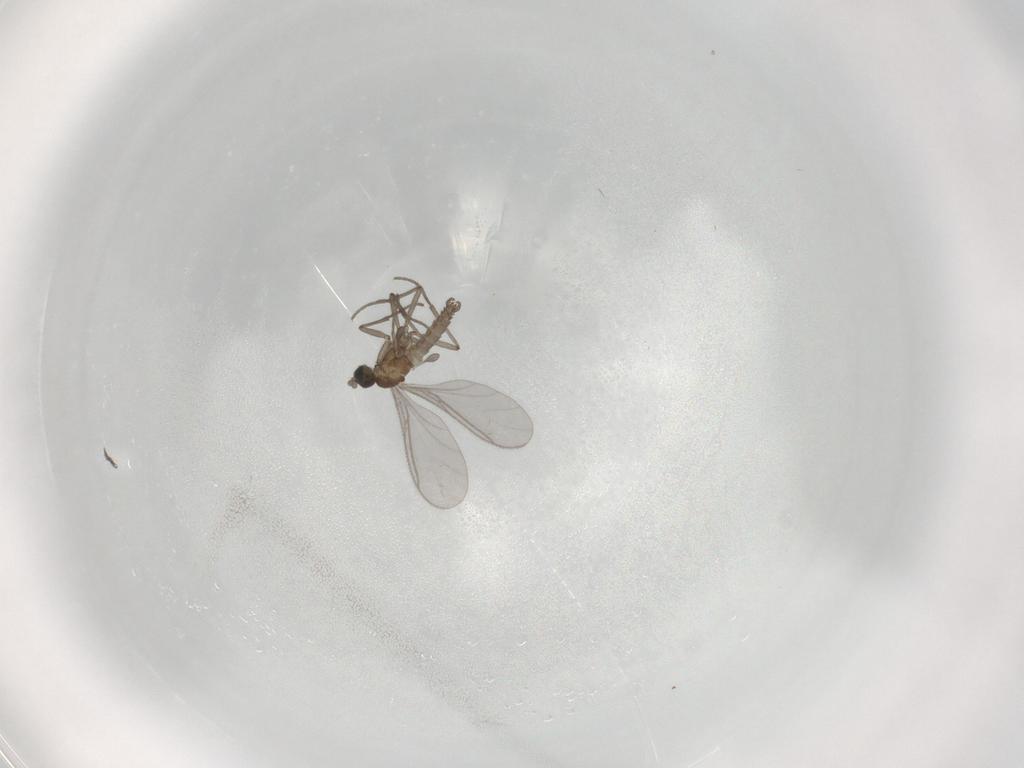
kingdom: Animalia
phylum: Arthropoda
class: Insecta
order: Diptera
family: Sciaridae
